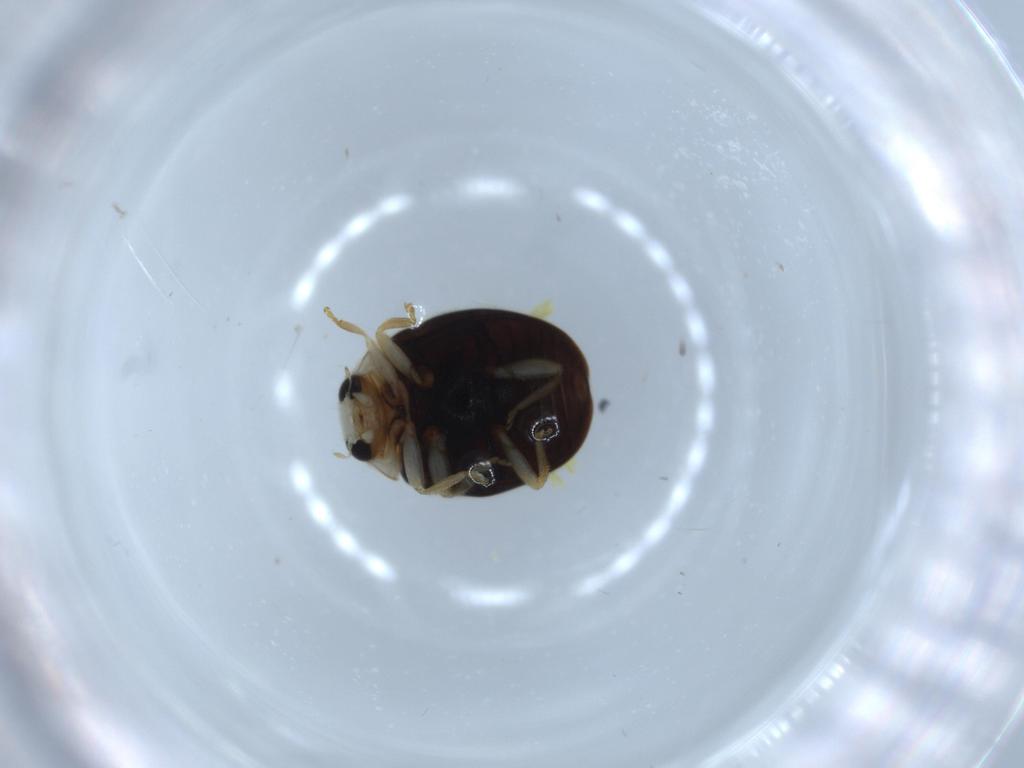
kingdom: Animalia
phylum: Arthropoda
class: Insecta
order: Coleoptera
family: Coccinellidae
